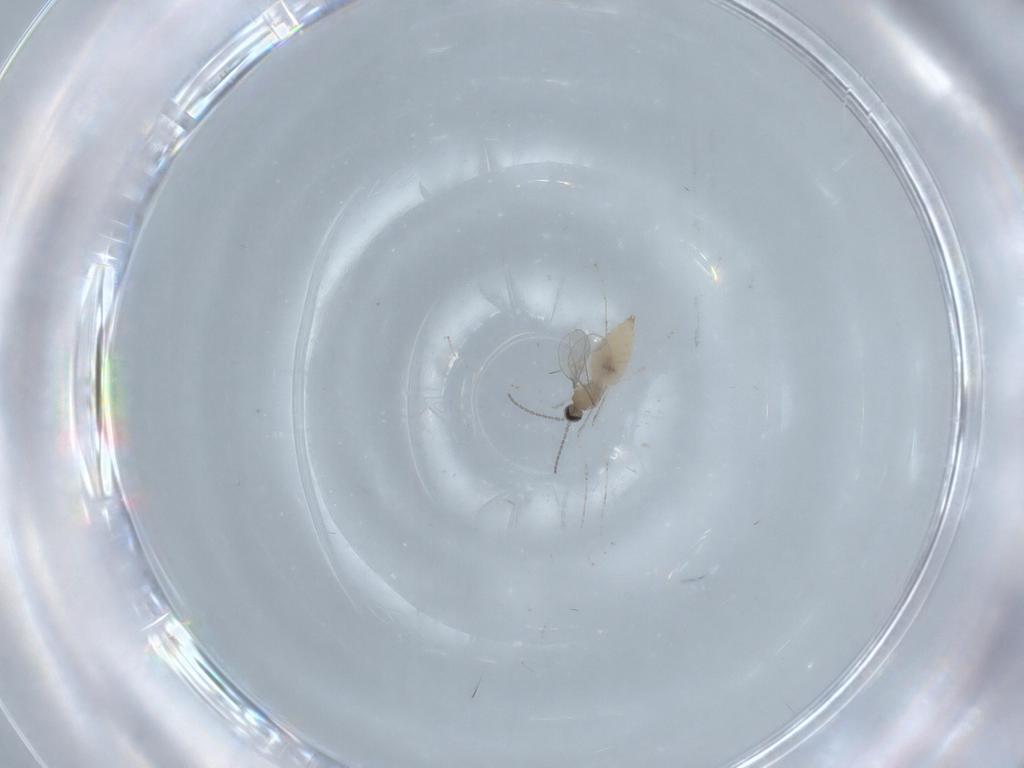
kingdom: Animalia
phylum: Arthropoda
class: Insecta
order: Diptera
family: Cecidomyiidae
